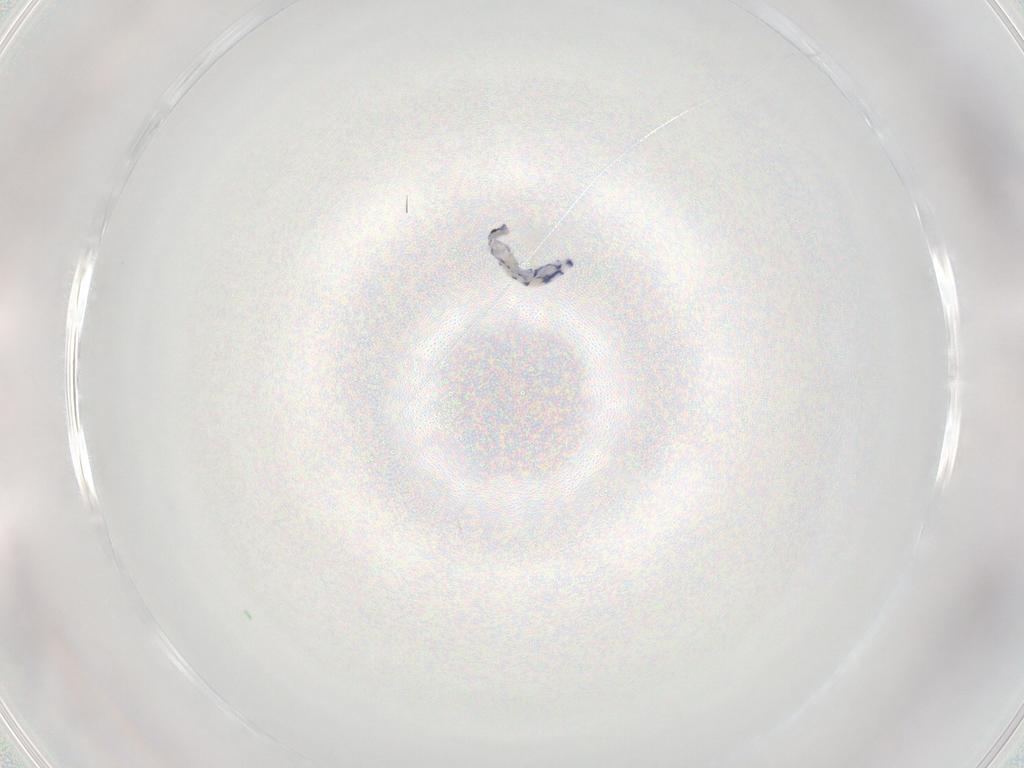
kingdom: Animalia
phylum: Arthropoda
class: Collembola
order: Entomobryomorpha
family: Entomobryidae
